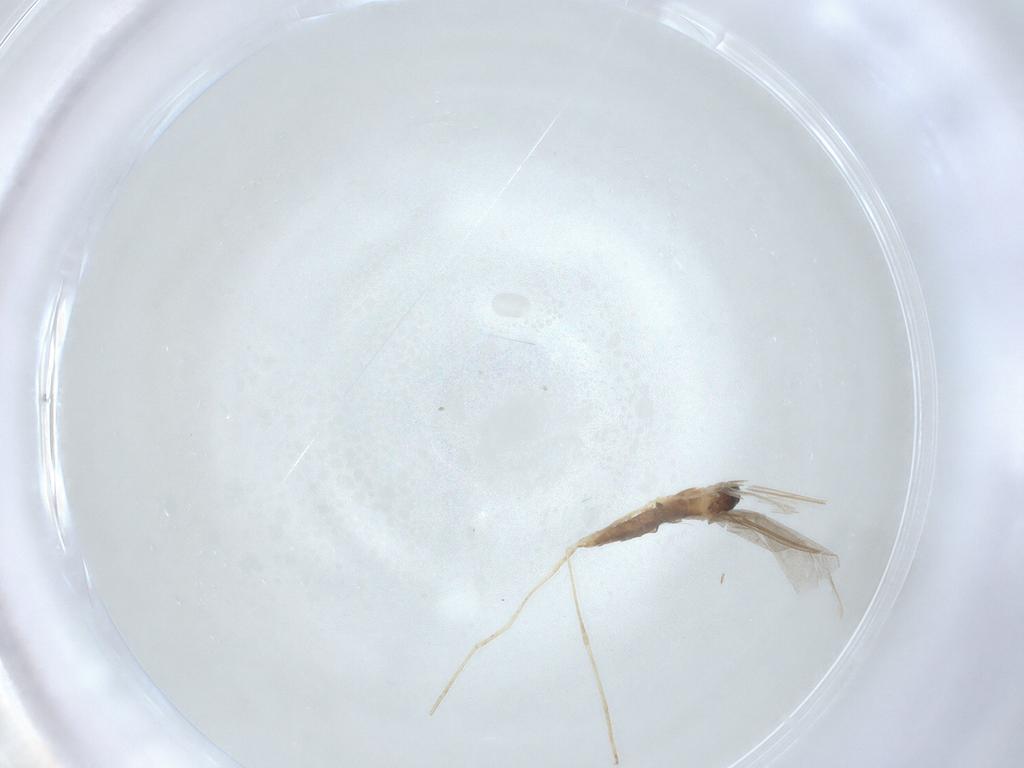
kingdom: Animalia
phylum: Arthropoda
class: Insecta
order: Diptera
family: Cecidomyiidae
